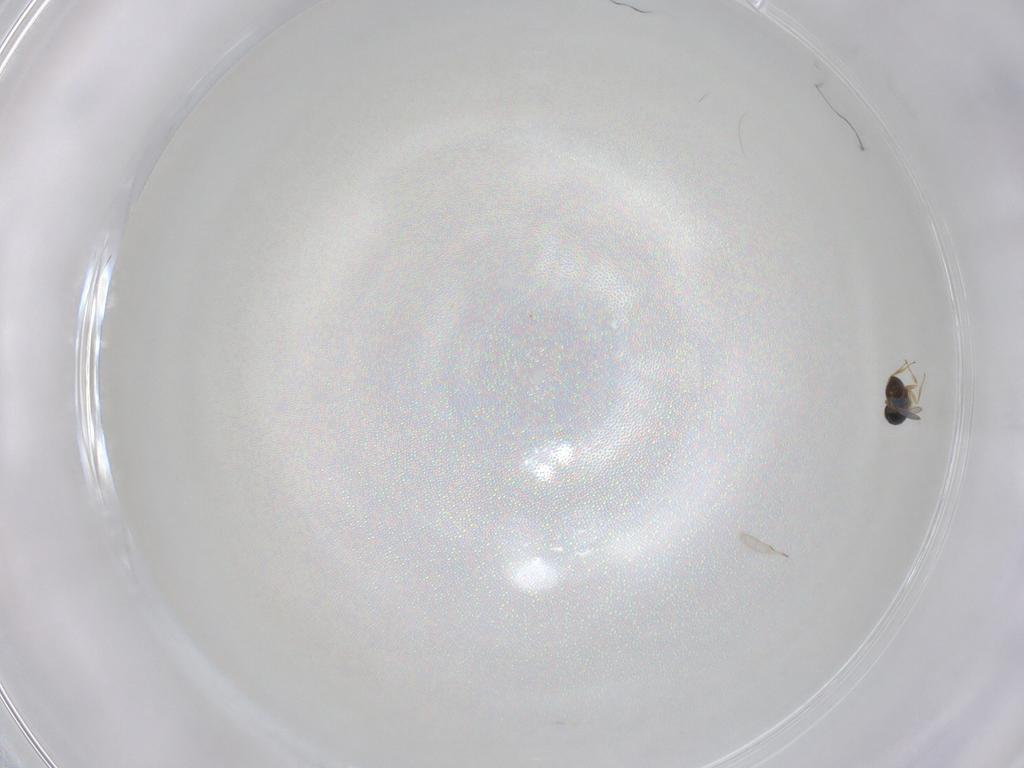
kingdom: Animalia
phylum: Arthropoda
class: Insecta
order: Hymenoptera
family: Scelionidae
